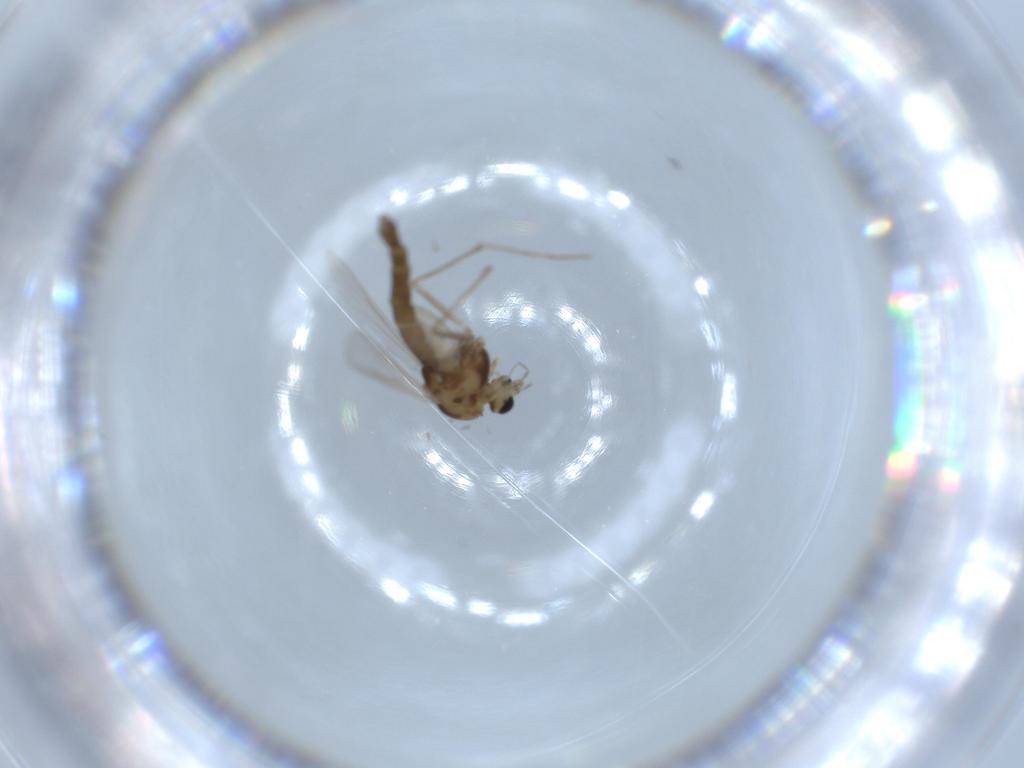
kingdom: Animalia
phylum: Arthropoda
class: Insecta
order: Diptera
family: Chironomidae
